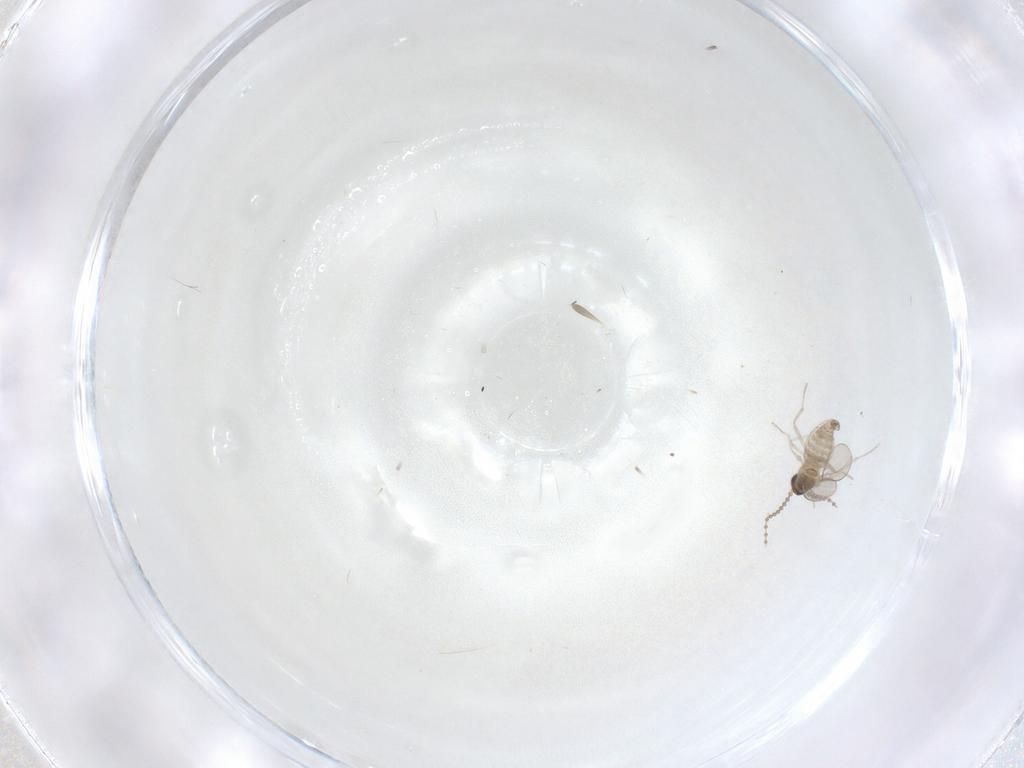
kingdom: Animalia
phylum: Arthropoda
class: Insecta
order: Diptera
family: Cecidomyiidae
